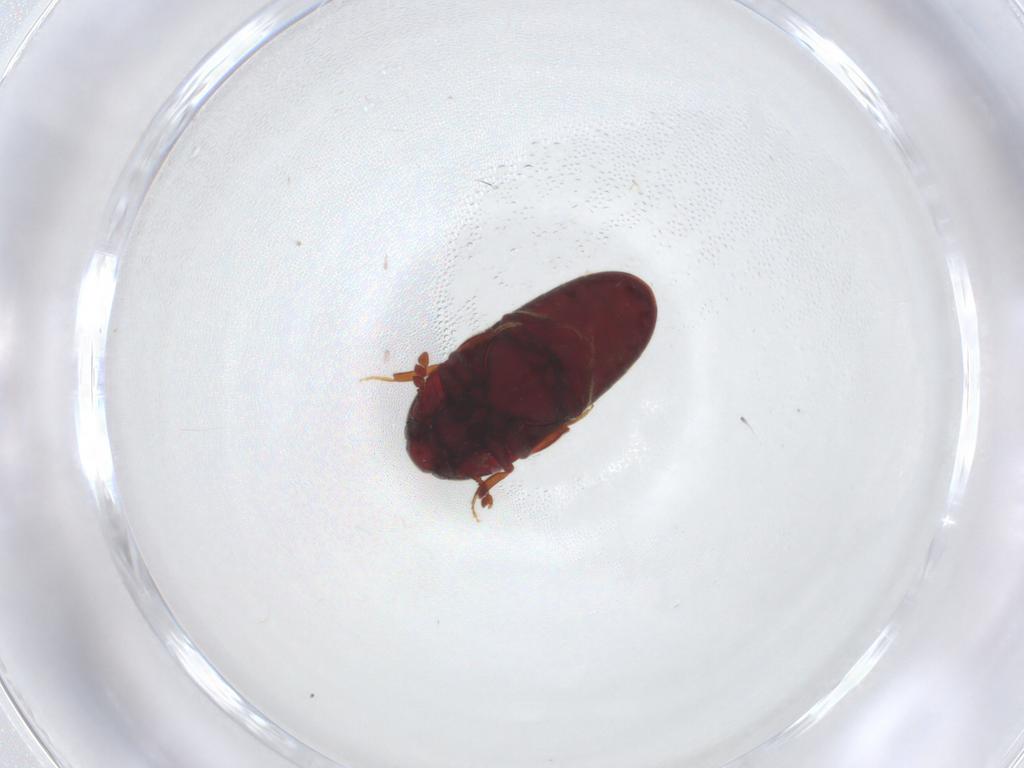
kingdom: Animalia
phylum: Arthropoda
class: Insecta
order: Coleoptera
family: Throscidae
